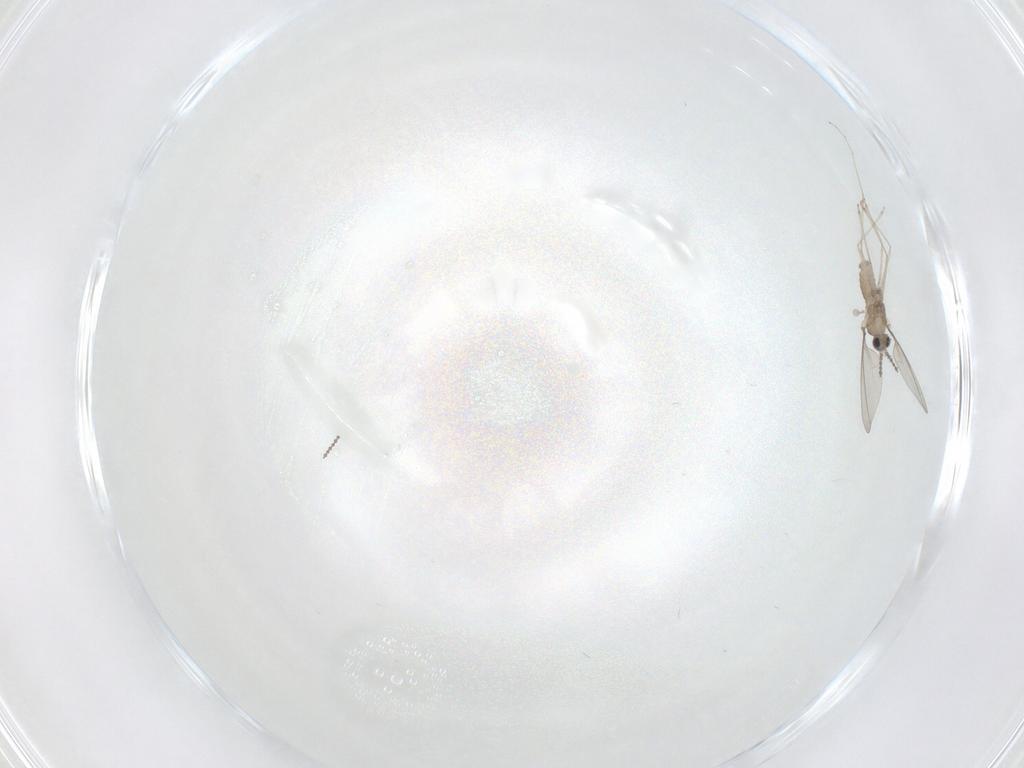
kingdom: Animalia
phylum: Arthropoda
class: Insecta
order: Diptera
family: Cecidomyiidae
